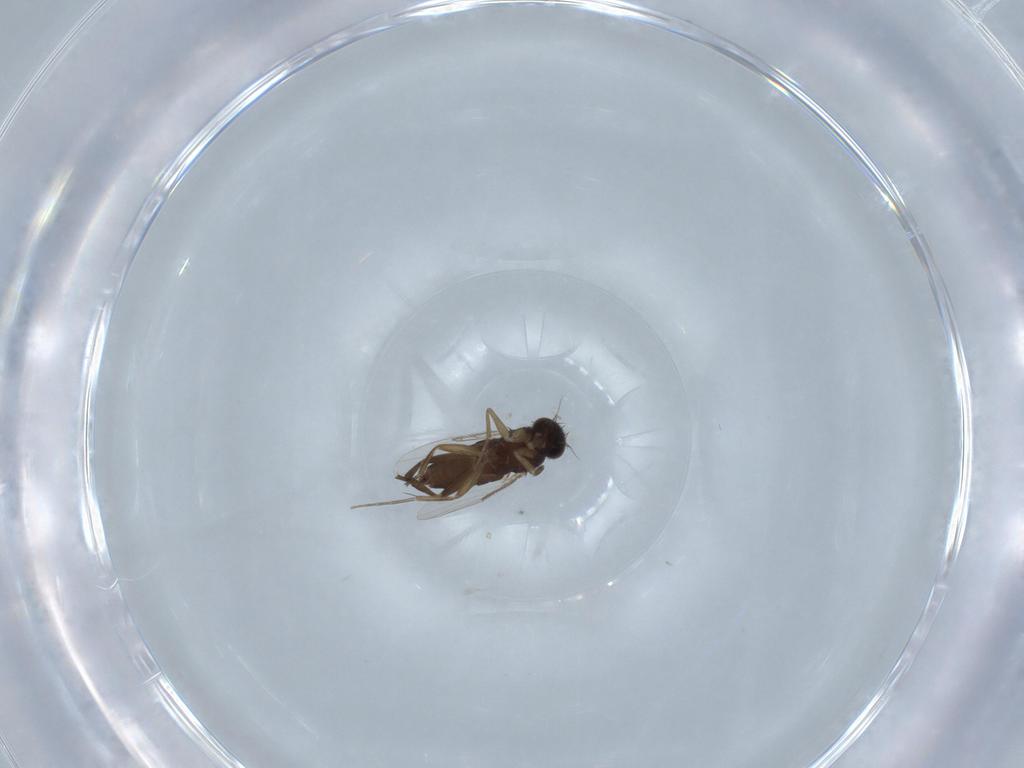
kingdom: Animalia
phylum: Arthropoda
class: Insecta
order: Diptera
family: Phoridae
